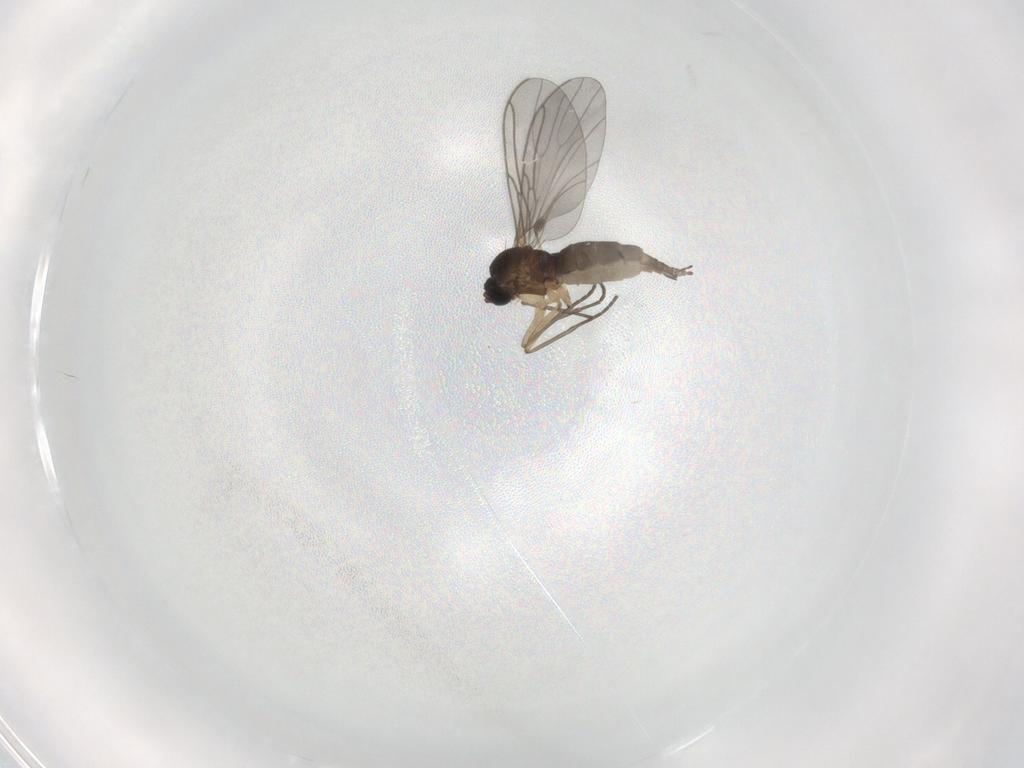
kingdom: Animalia
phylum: Arthropoda
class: Insecta
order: Diptera
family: Sciaridae
